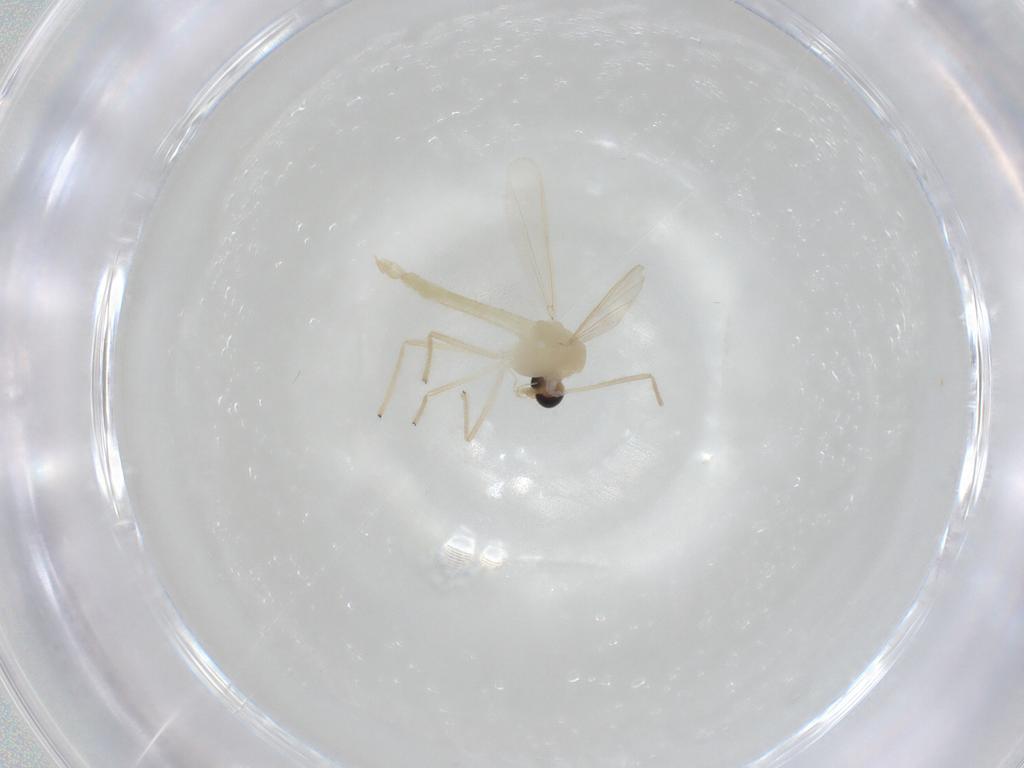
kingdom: Animalia
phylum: Arthropoda
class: Insecta
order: Diptera
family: Chironomidae
